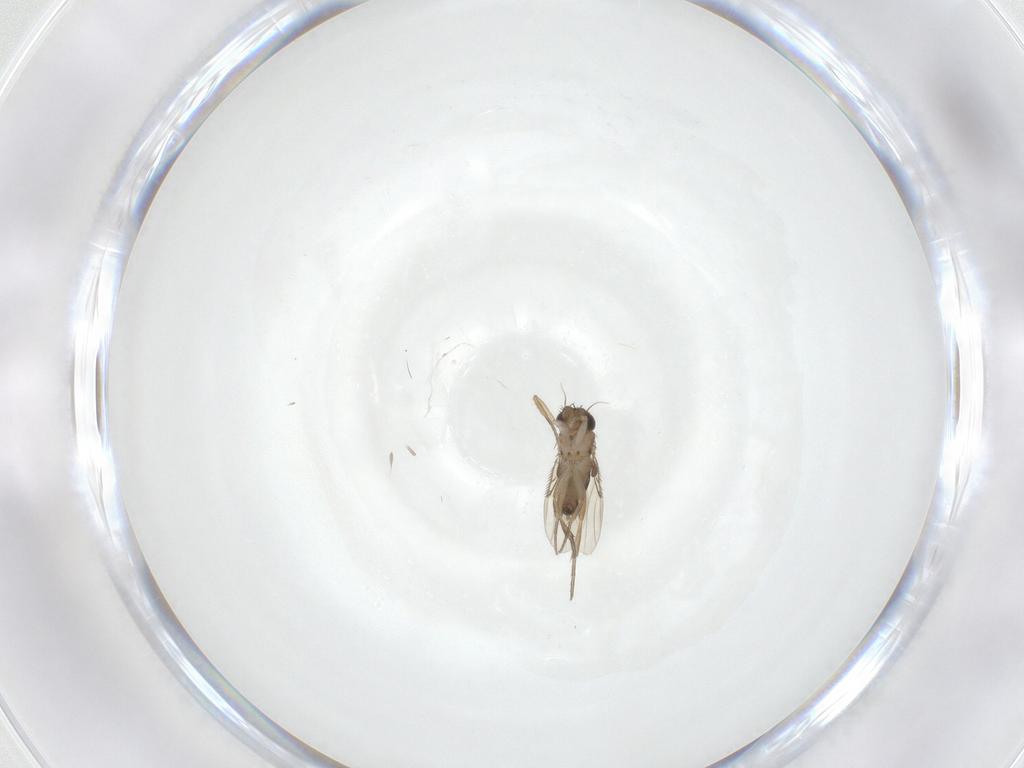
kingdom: Animalia
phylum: Arthropoda
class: Insecta
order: Diptera
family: Phoridae
